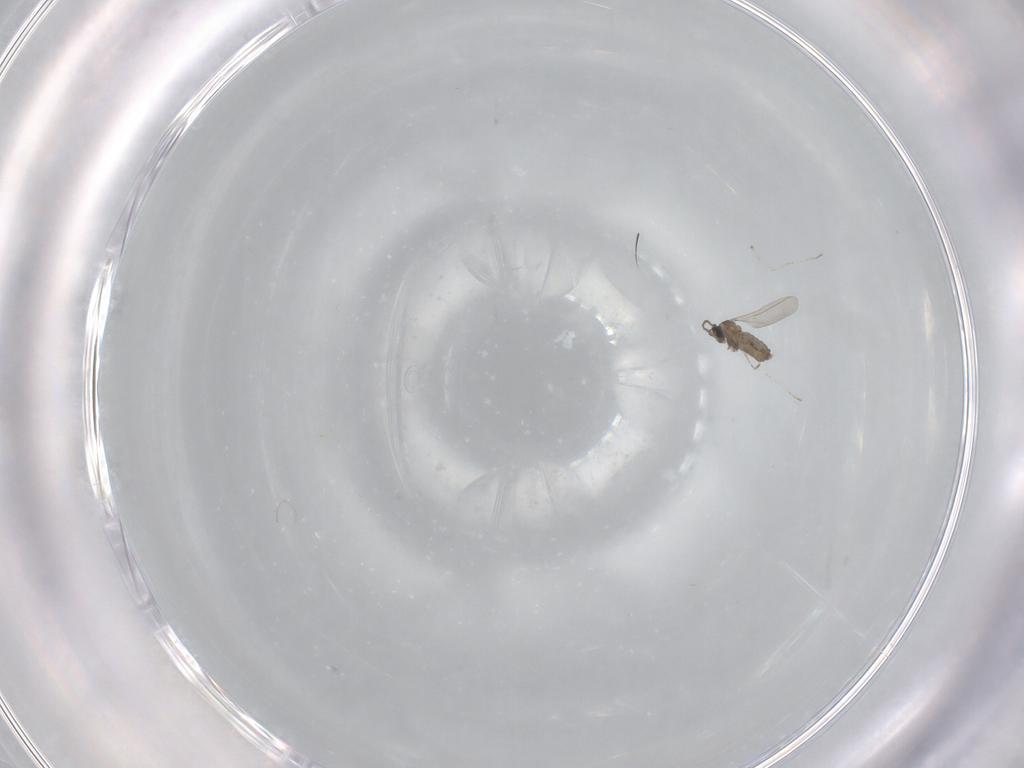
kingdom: Animalia
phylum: Arthropoda
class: Insecta
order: Diptera
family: Cecidomyiidae
